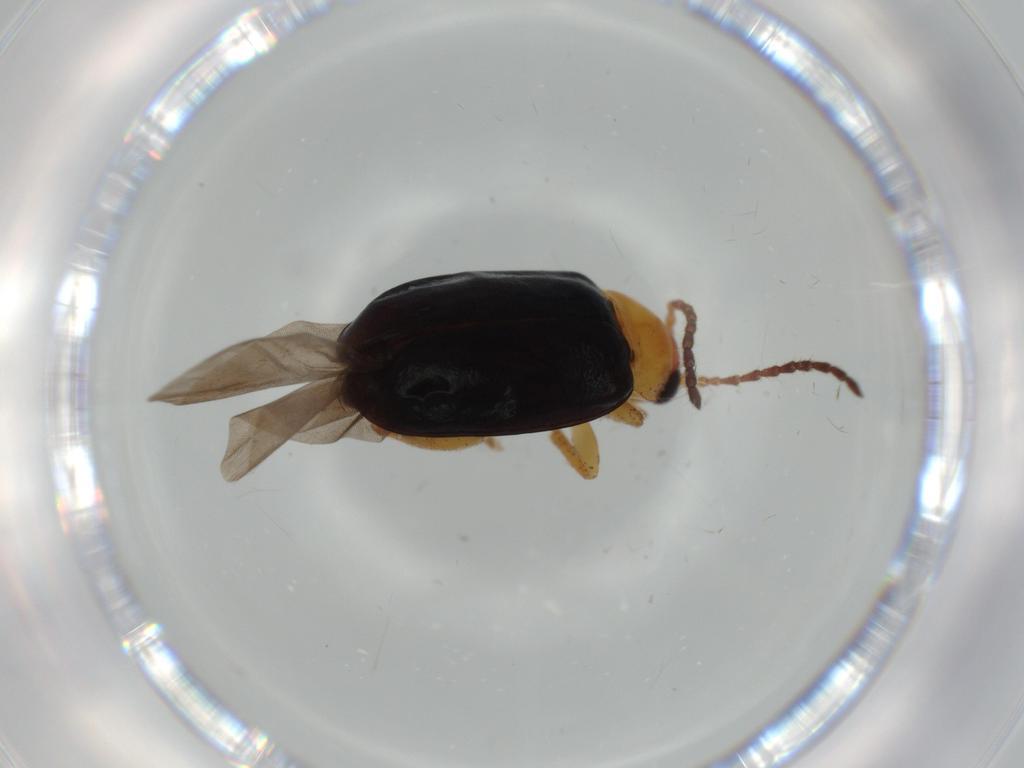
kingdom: Animalia
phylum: Arthropoda
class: Insecta
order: Coleoptera
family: Chrysomelidae
